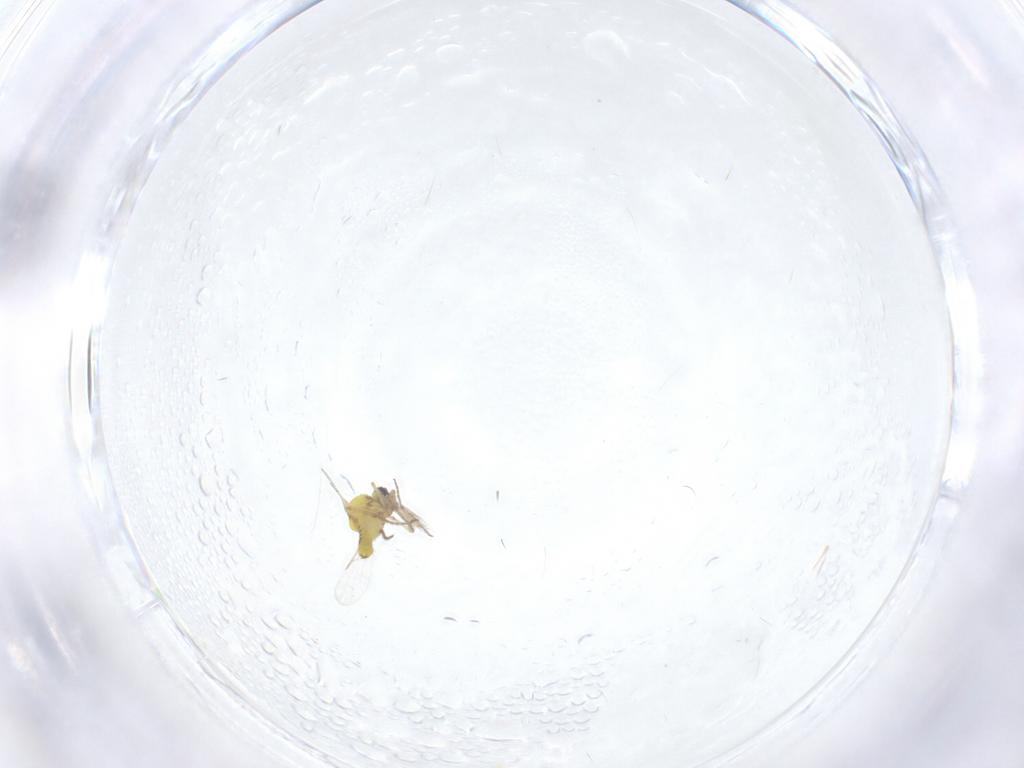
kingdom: Animalia
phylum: Arthropoda
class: Insecta
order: Diptera
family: Ceratopogonidae
